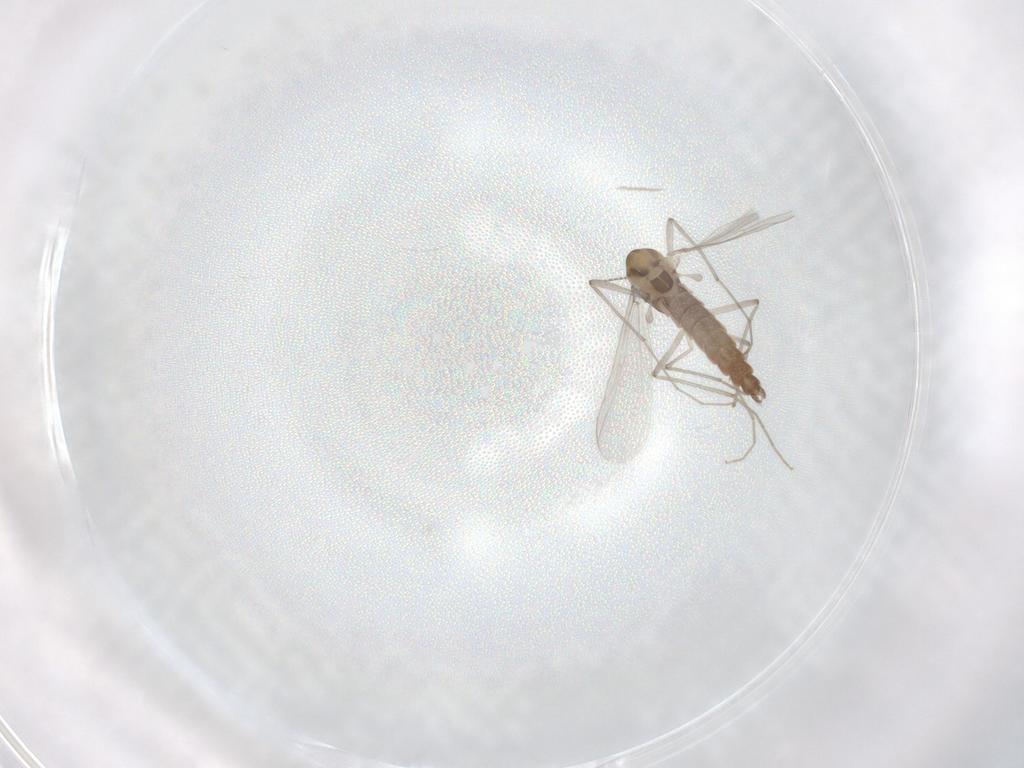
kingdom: Animalia
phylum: Arthropoda
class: Insecta
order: Diptera
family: Chironomidae
